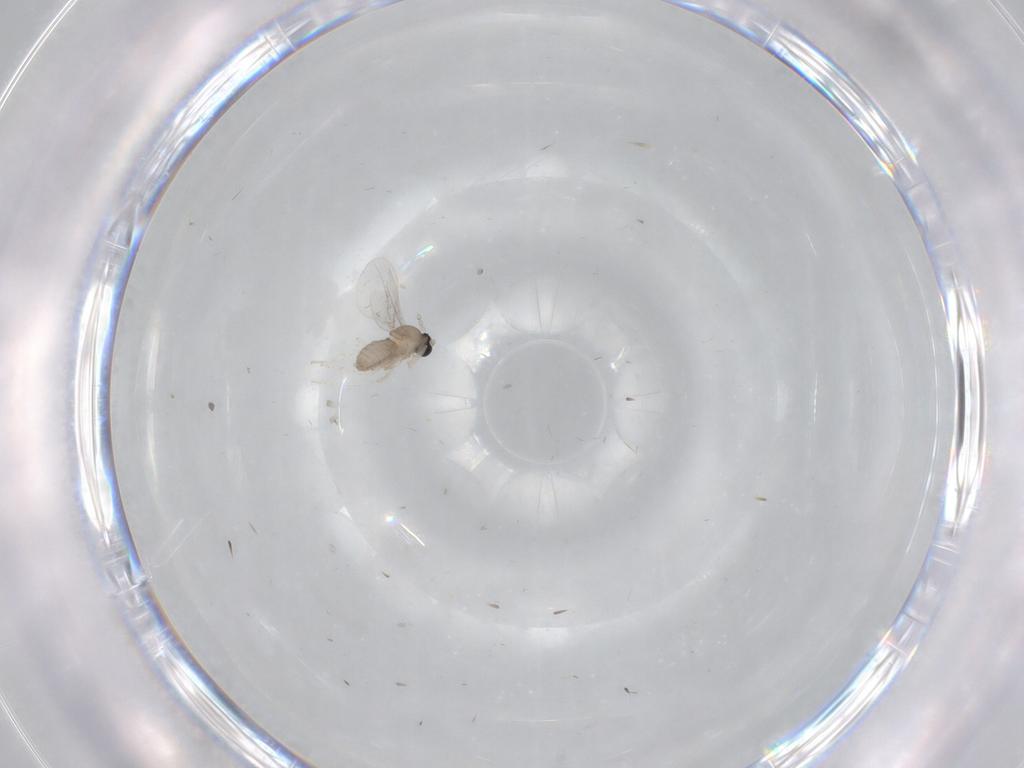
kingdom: Animalia
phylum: Arthropoda
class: Insecta
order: Diptera
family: Cecidomyiidae
